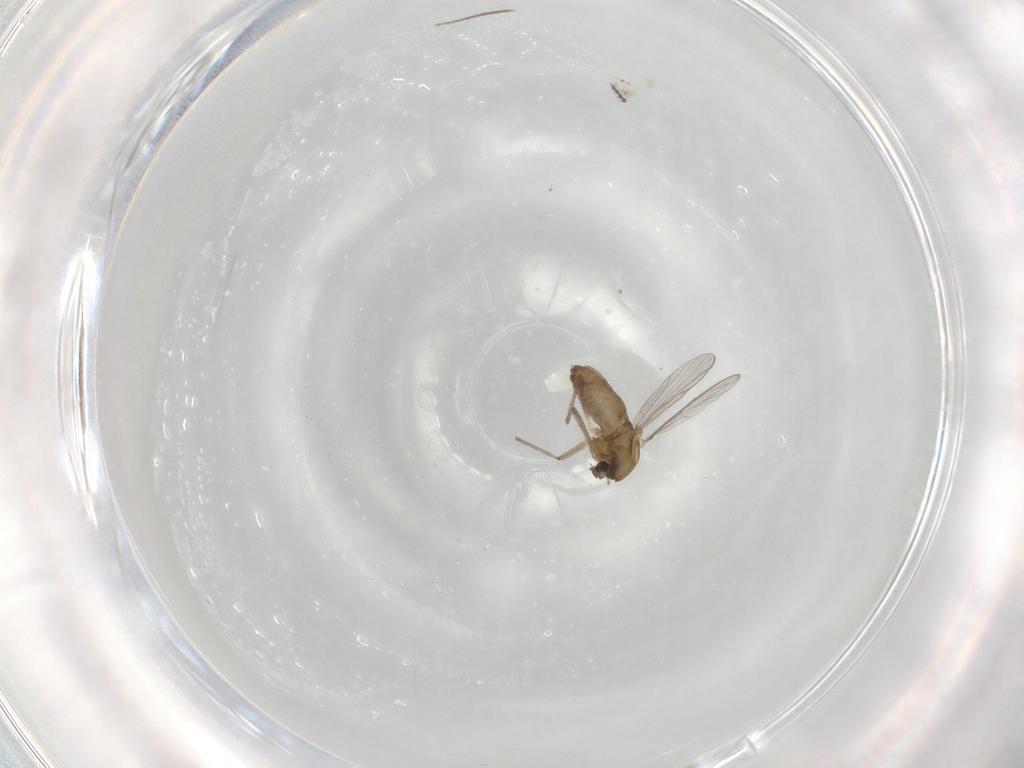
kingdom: Animalia
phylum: Arthropoda
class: Insecta
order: Diptera
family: Chironomidae
